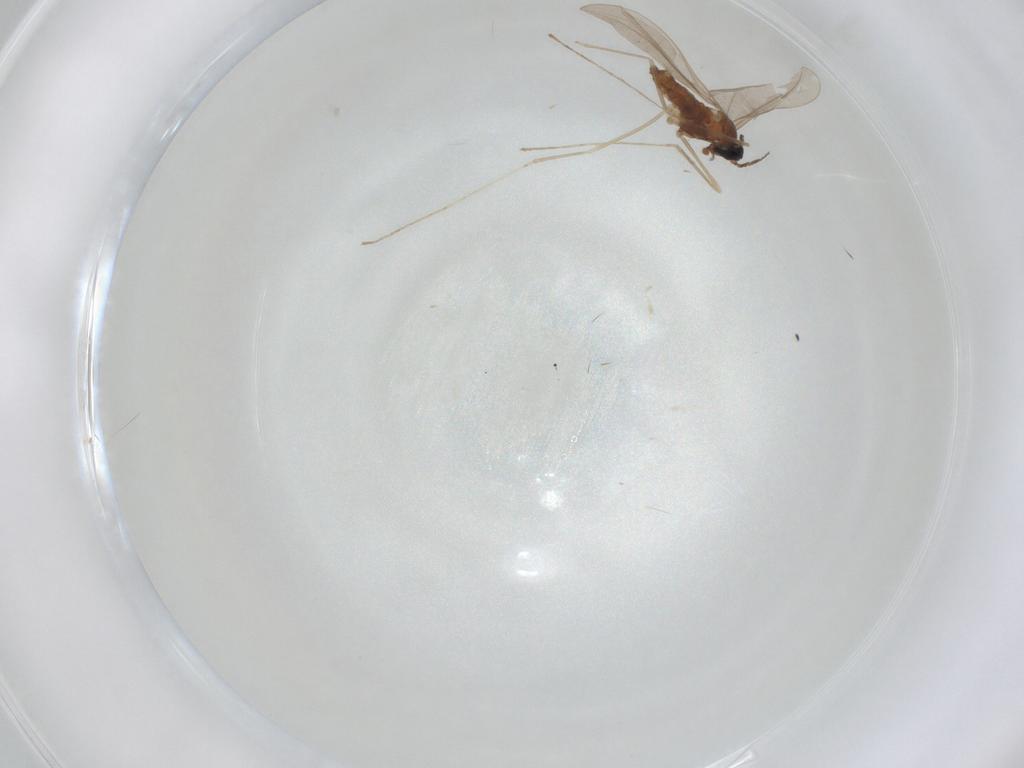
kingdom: Animalia
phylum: Arthropoda
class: Insecta
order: Diptera
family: Cecidomyiidae
